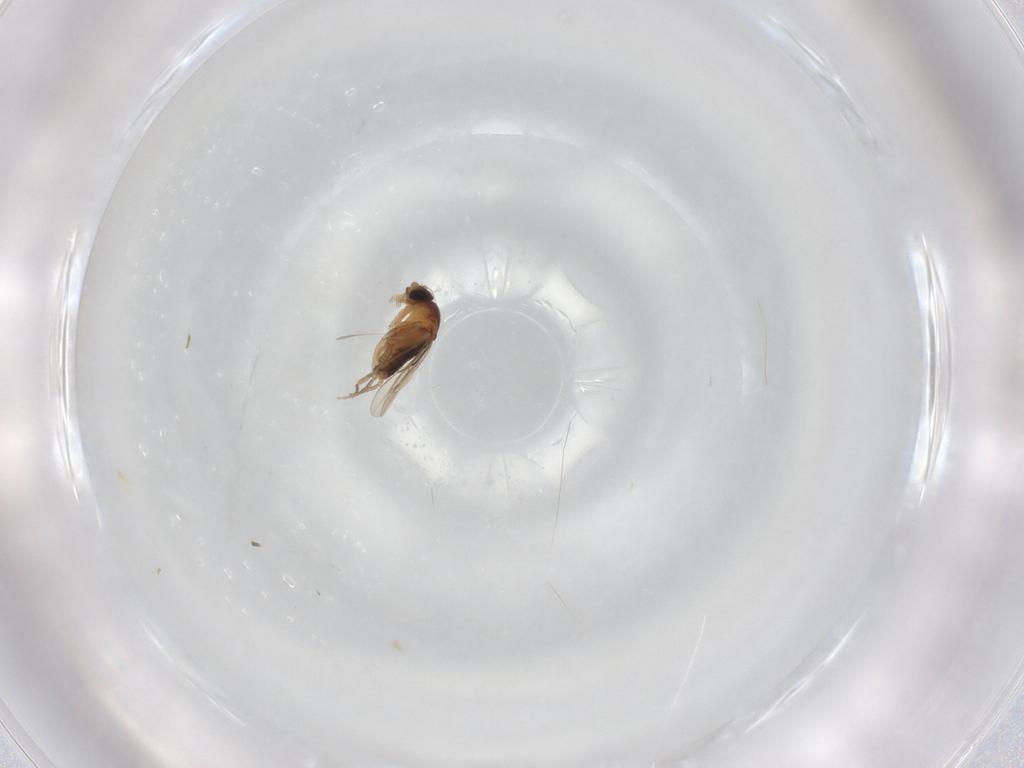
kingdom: Animalia
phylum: Arthropoda
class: Insecta
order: Diptera
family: Phoridae
